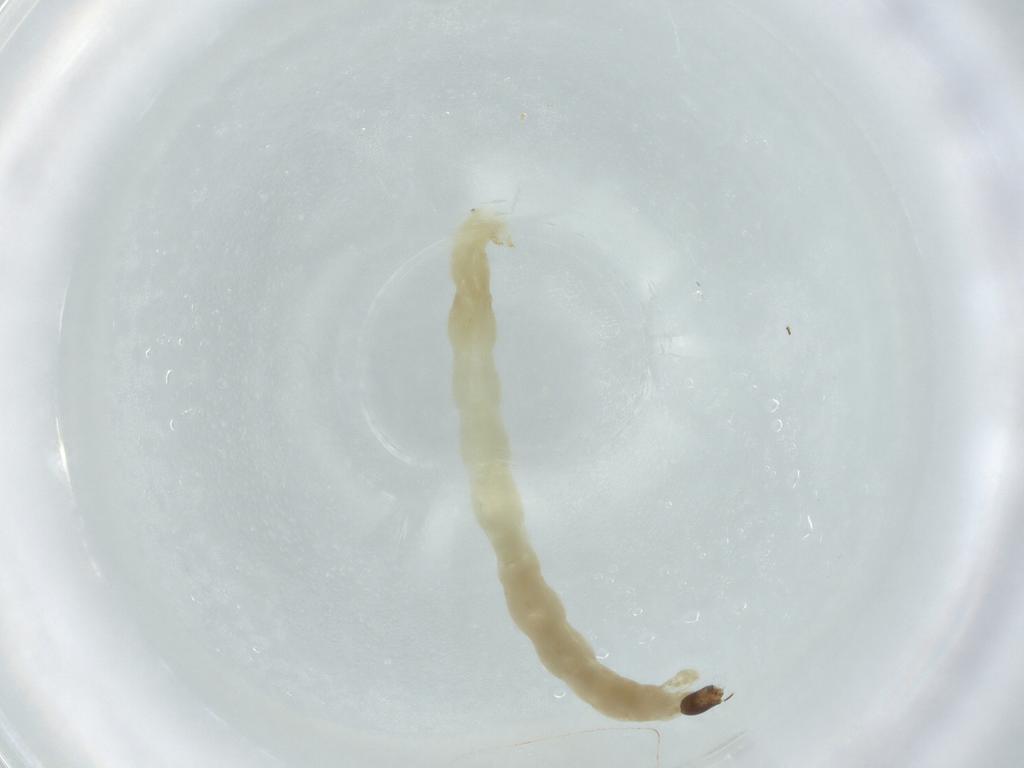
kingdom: Animalia
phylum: Arthropoda
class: Insecta
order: Diptera
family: Chironomidae
